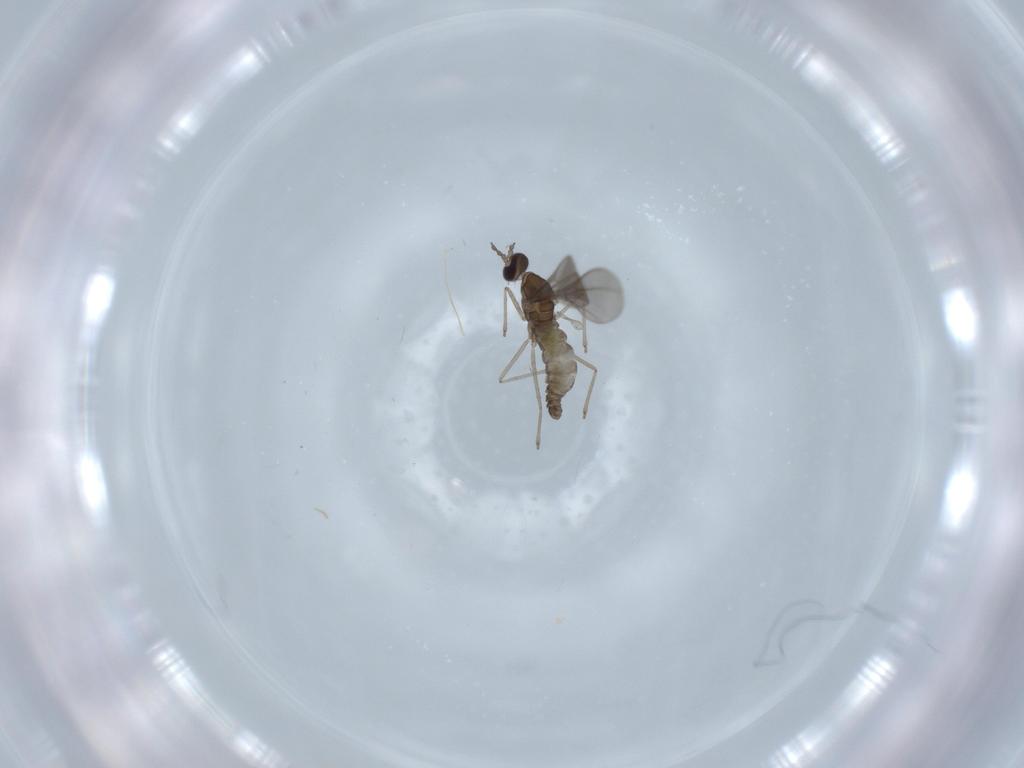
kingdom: Animalia
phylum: Arthropoda
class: Insecta
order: Diptera
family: Cecidomyiidae
